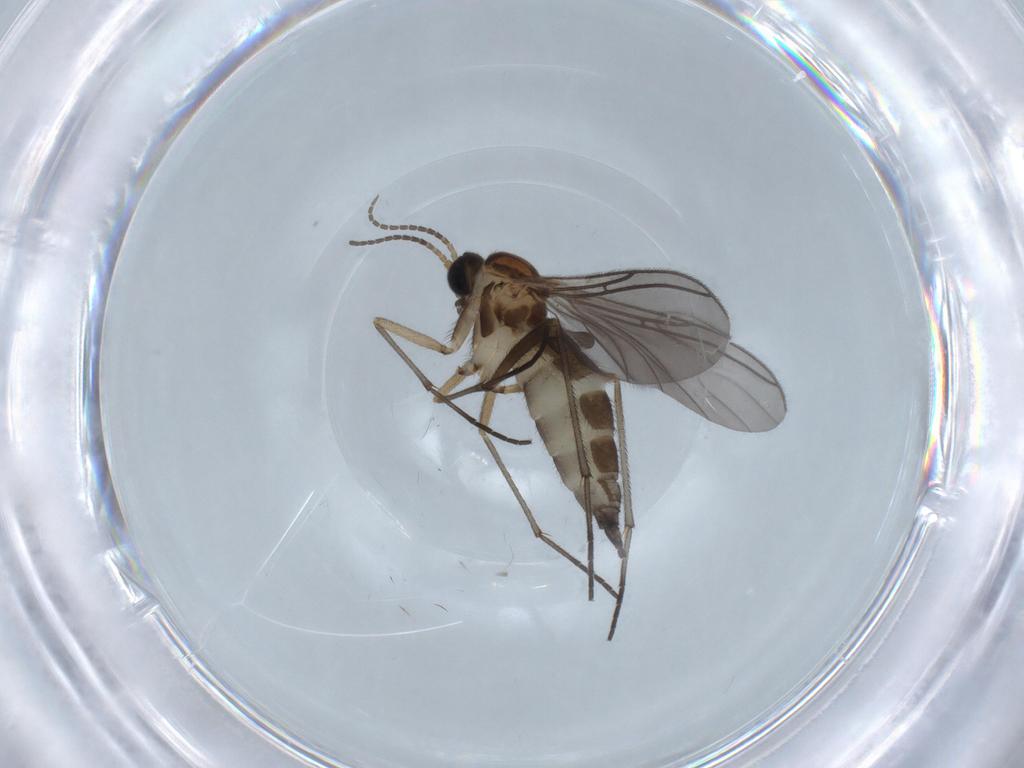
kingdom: Animalia
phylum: Arthropoda
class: Insecta
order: Diptera
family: Sciaridae
